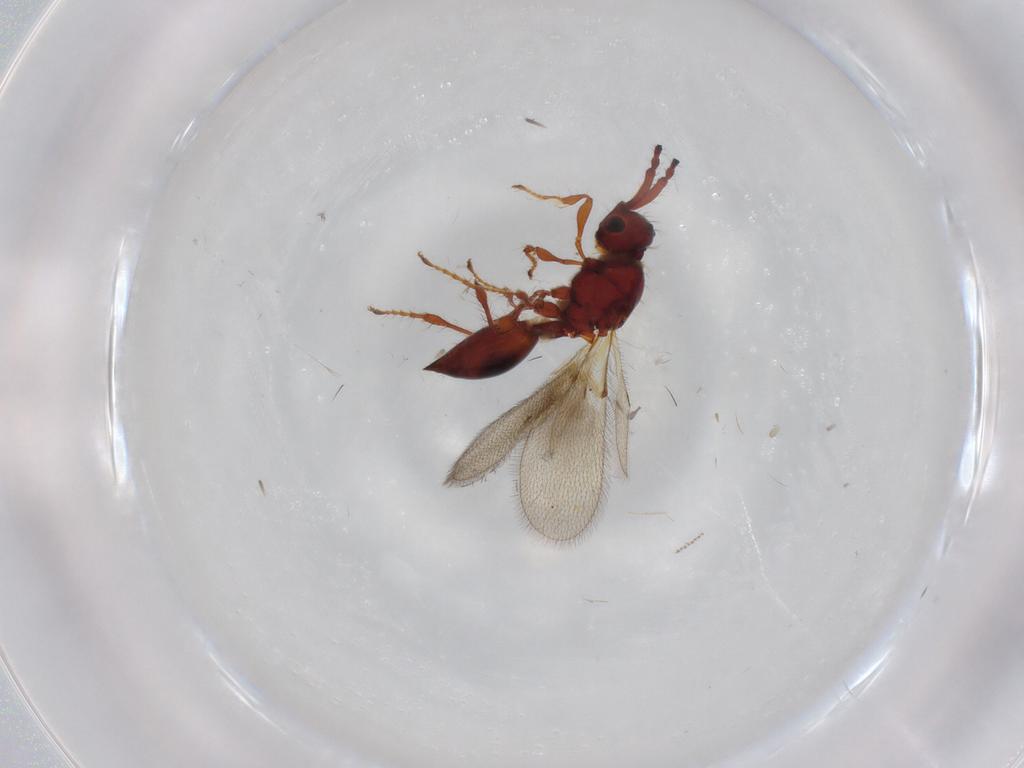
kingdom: Animalia
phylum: Arthropoda
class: Insecta
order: Hymenoptera
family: Diapriidae
